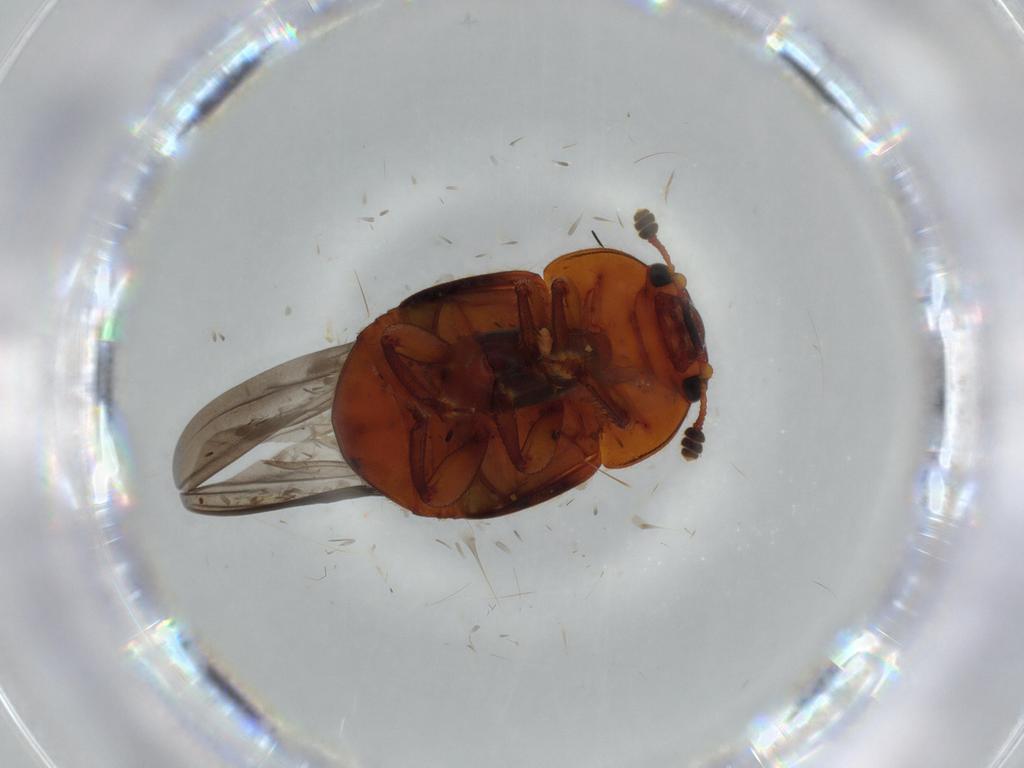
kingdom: Animalia
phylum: Arthropoda
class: Insecta
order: Coleoptera
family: Nitidulidae
